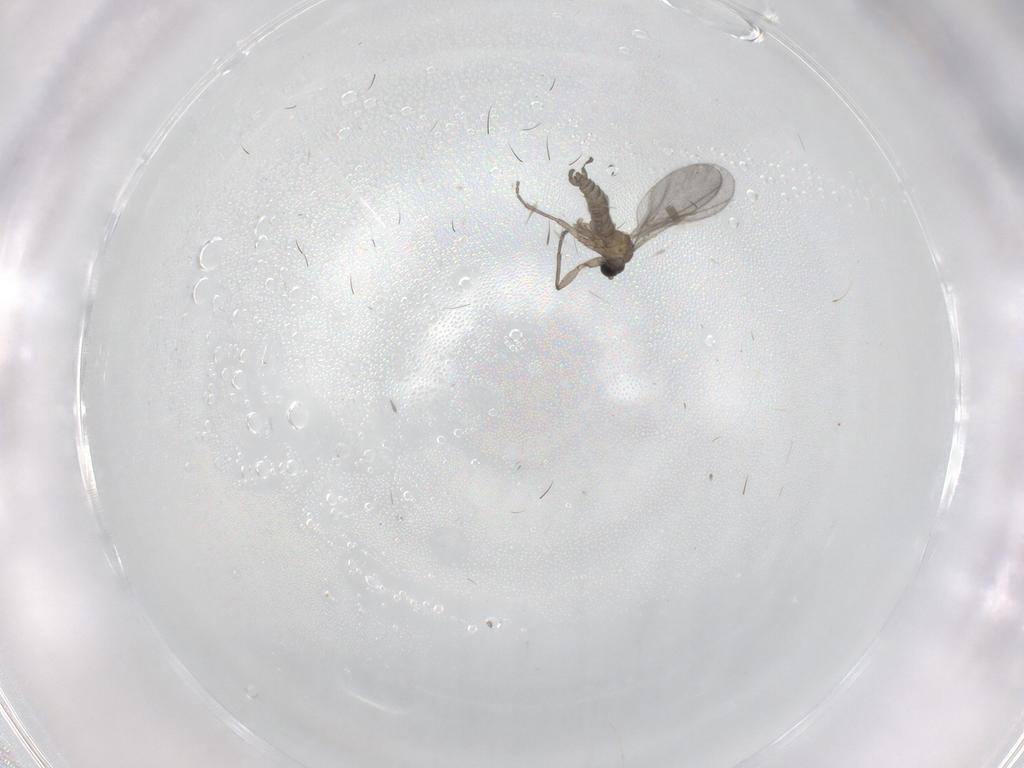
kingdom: Animalia
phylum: Arthropoda
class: Insecta
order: Diptera
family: Sciaridae
